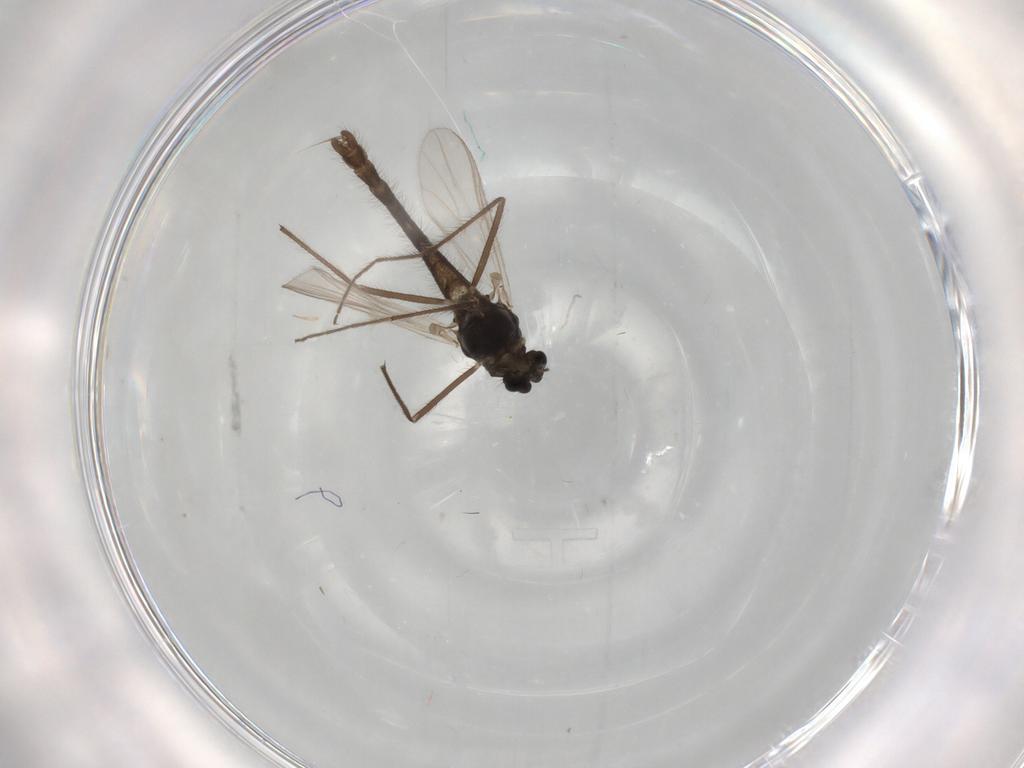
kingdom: Animalia
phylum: Arthropoda
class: Insecta
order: Diptera
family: Chironomidae
